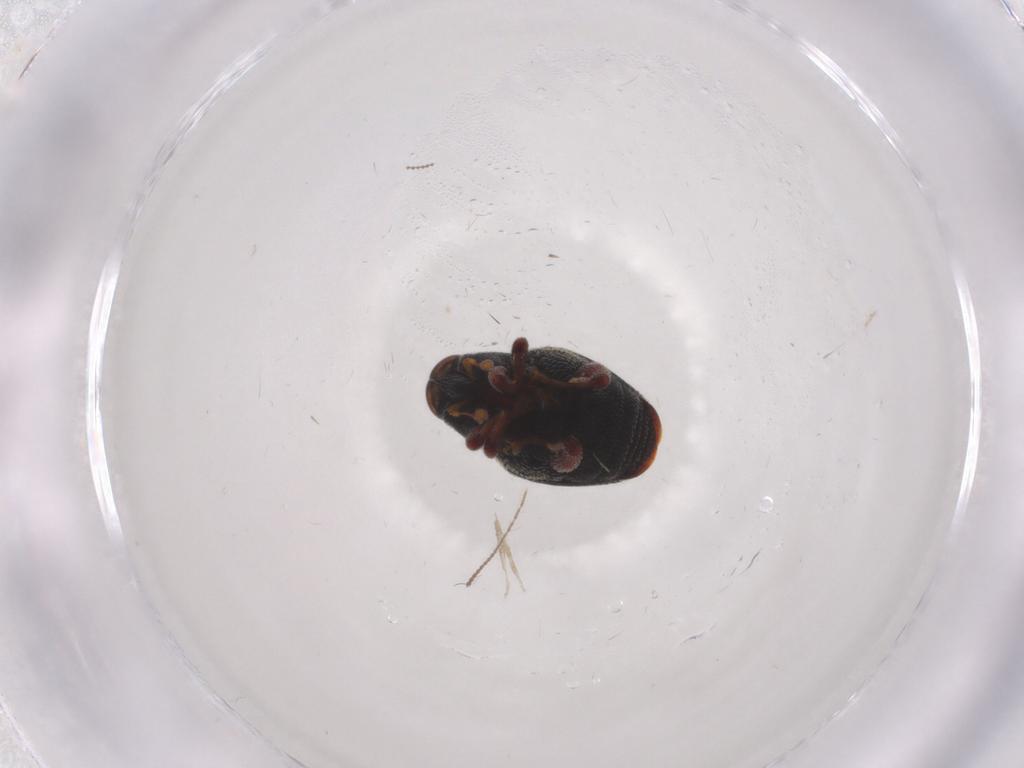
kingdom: Animalia
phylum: Arthropoda
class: Insecta
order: Coleoptera
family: Curculionidae
